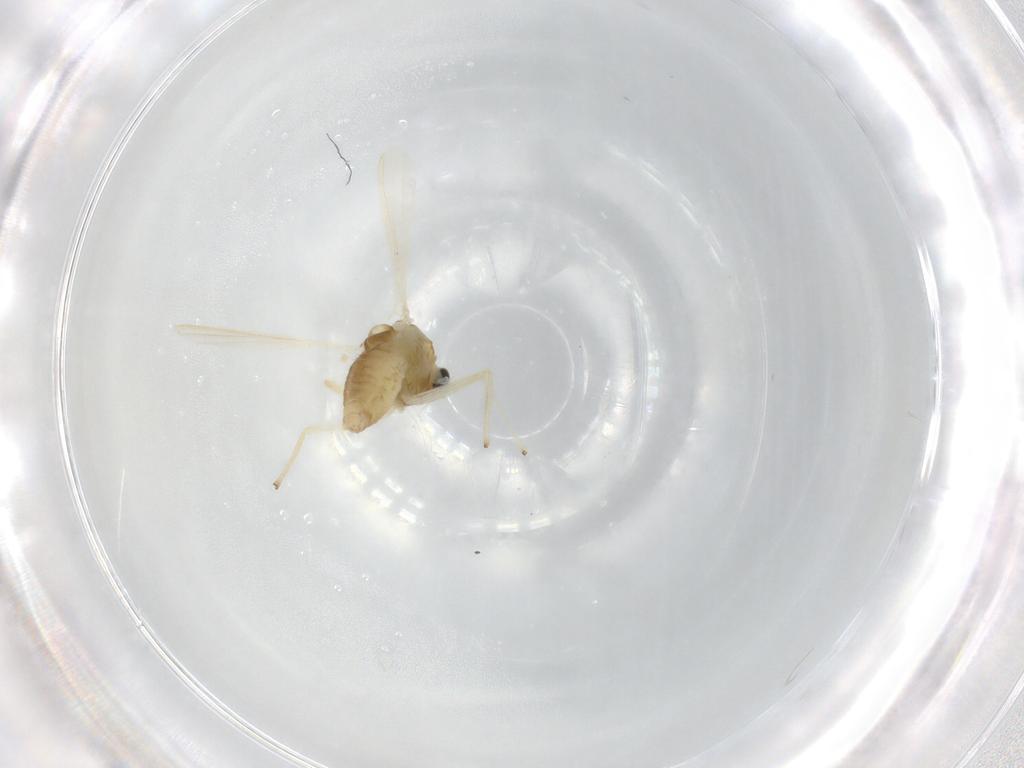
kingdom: Animalia
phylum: Arthropoda
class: Insecta
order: Diptera
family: Chironomidae
